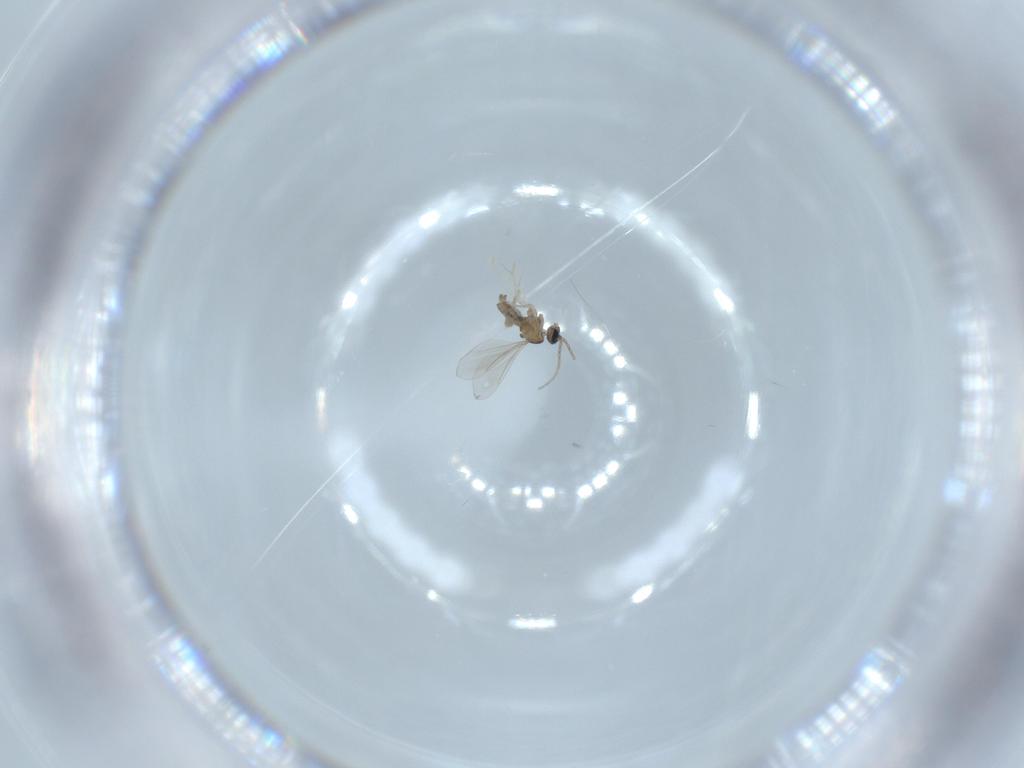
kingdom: Animalia
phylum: Arthropoda
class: Insecta
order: Diptera
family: Cecidomyiidae
